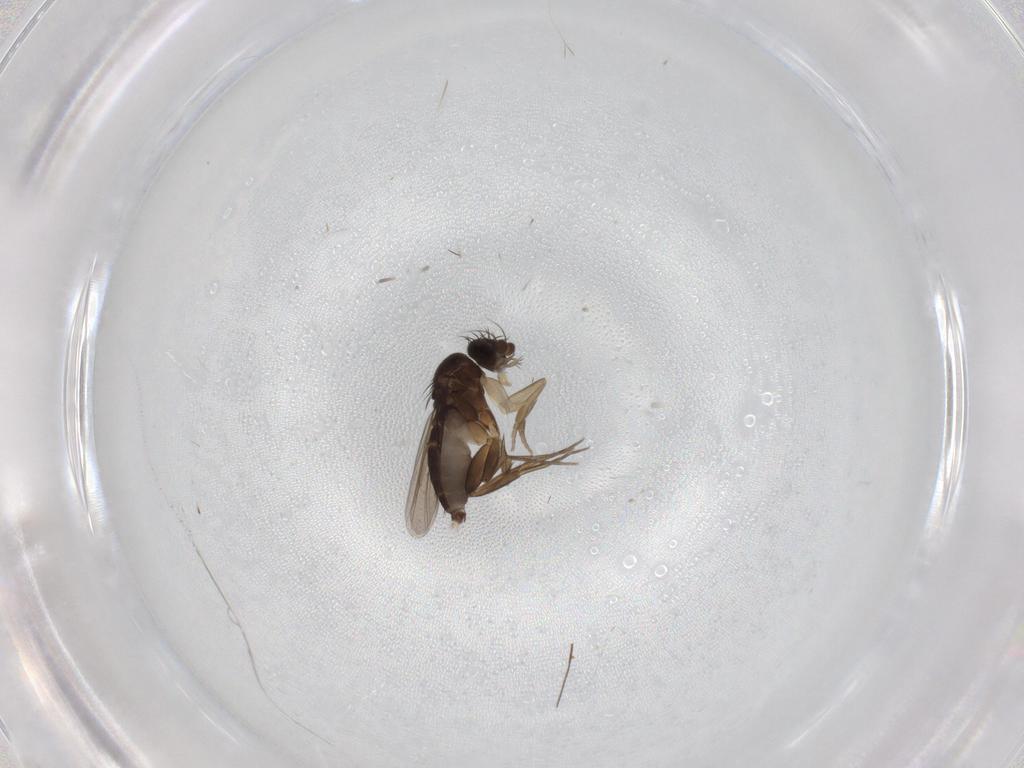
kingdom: Animalia
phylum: Arthropoda
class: Insecta
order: Diptera
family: Phoridae
